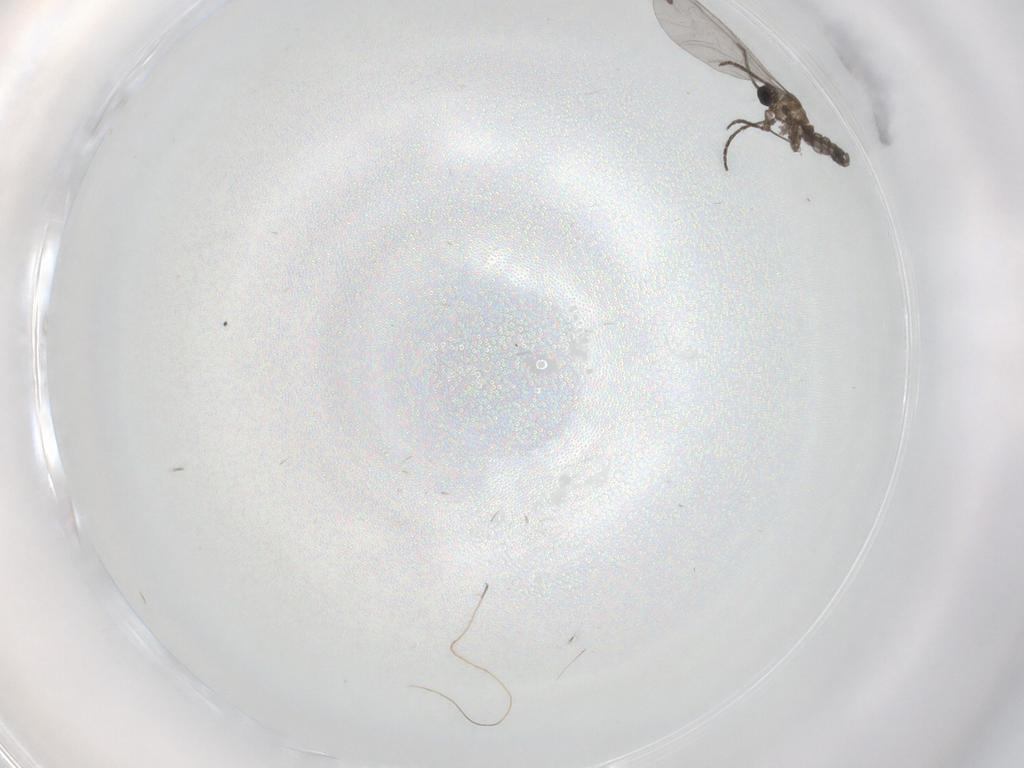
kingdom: Animalia
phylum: Arthropoda
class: Insecta
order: Diptera
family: Sciaridae
